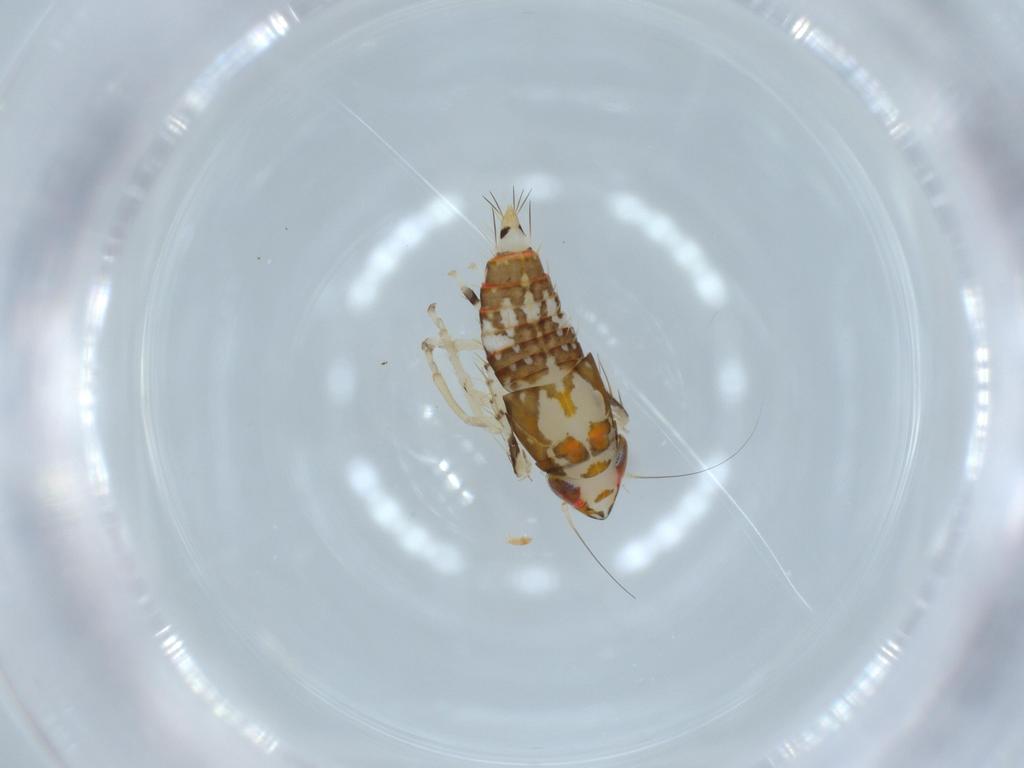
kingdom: Animalia
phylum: Arthropoda
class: Insecta
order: Hemiptera
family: Cicadellidae
